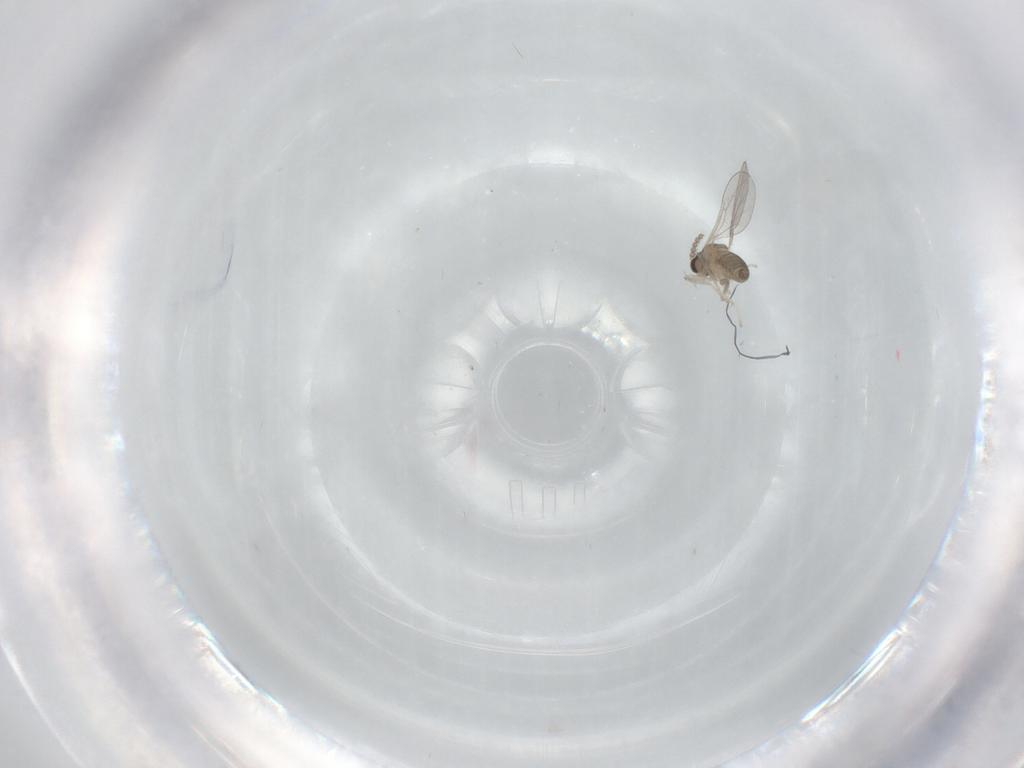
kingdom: Animalia
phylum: Arthropoda
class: Insecta
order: Diptera
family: Cecidomyiidae
